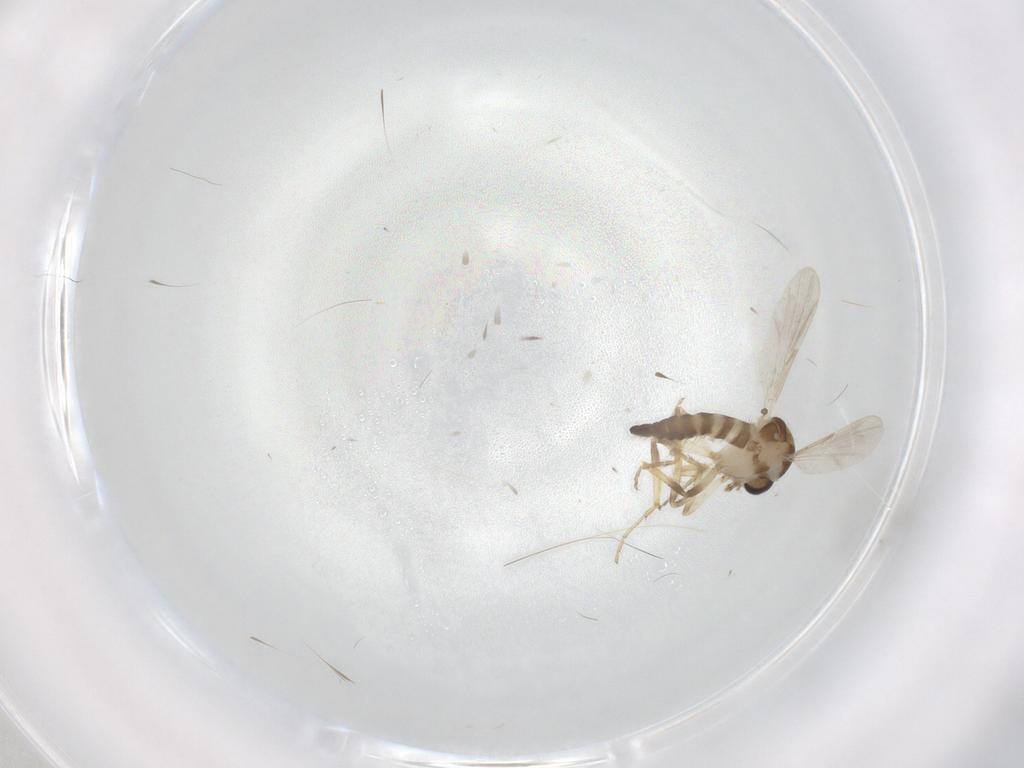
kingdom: Animalia
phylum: Arthropoda
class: Insecta
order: Diptera
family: Ceratopogonidae
